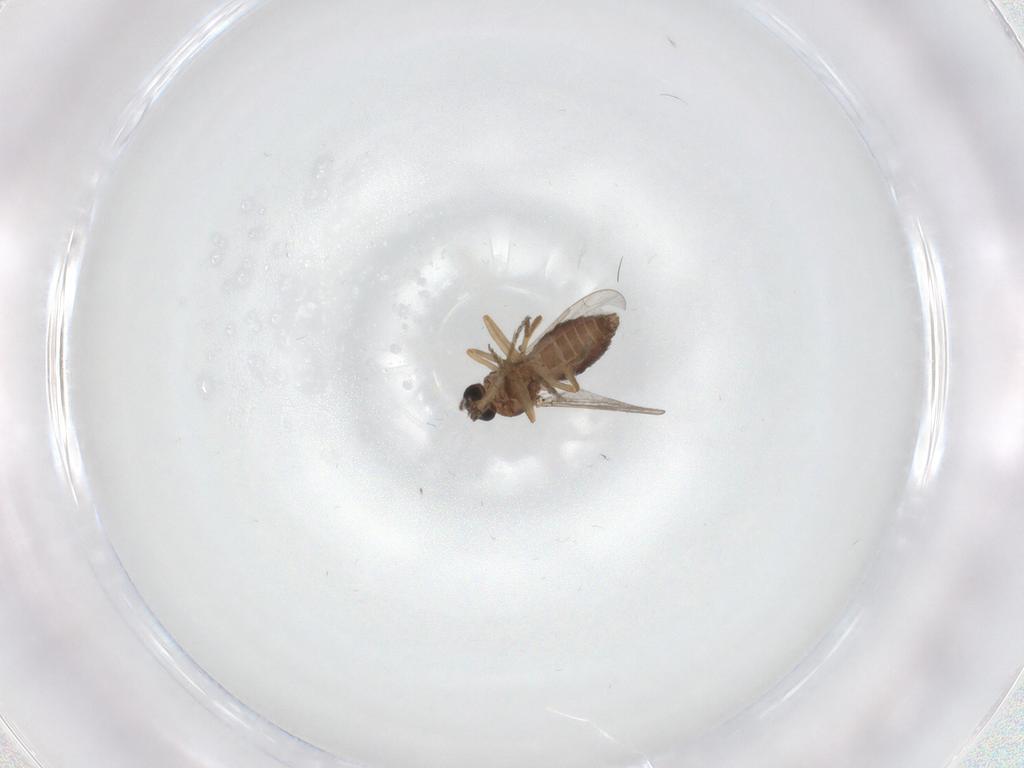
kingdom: Animalia
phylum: Arthropoda
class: Insecta
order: Diptera
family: Ceratopogonidae
